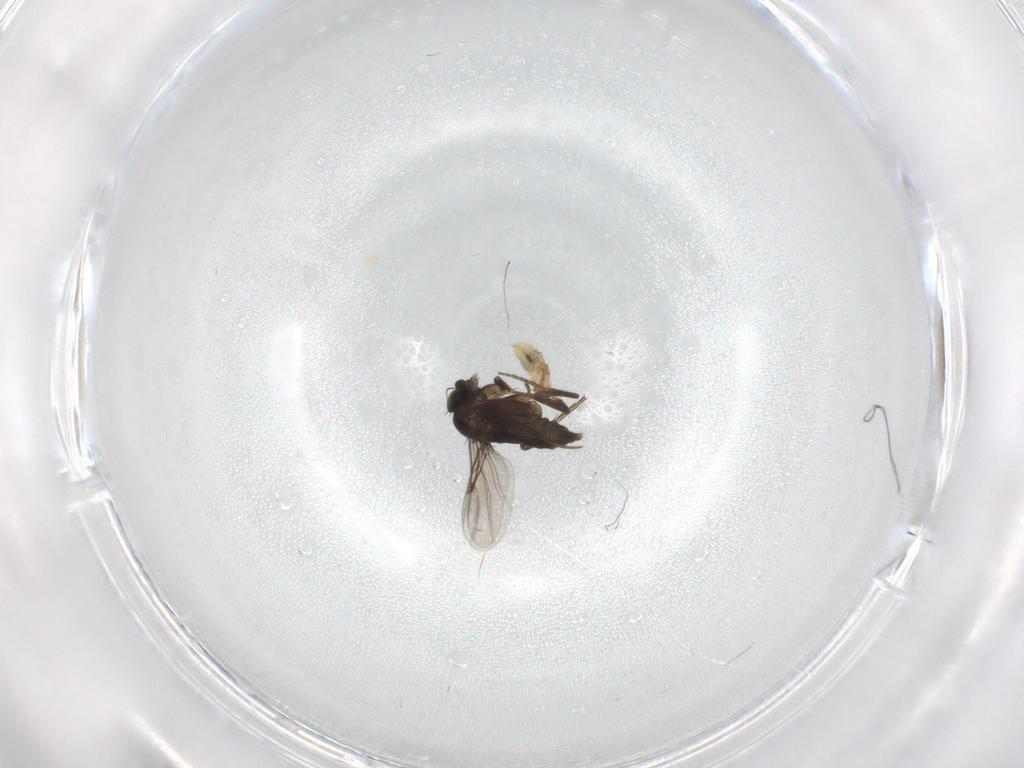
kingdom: Animalia
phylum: Arthropoda
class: Insecta
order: Diptera
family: Cecidomyiidae
